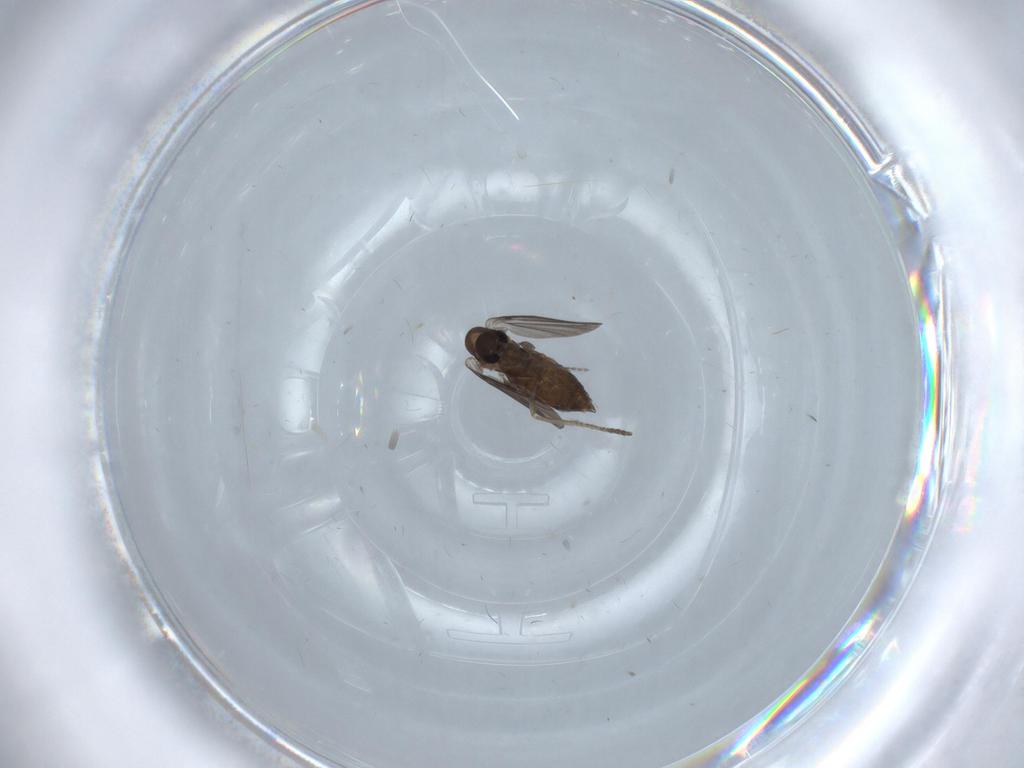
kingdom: Animalia
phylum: Arthropoda
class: Insecta
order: Diptera
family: Psychodidae
